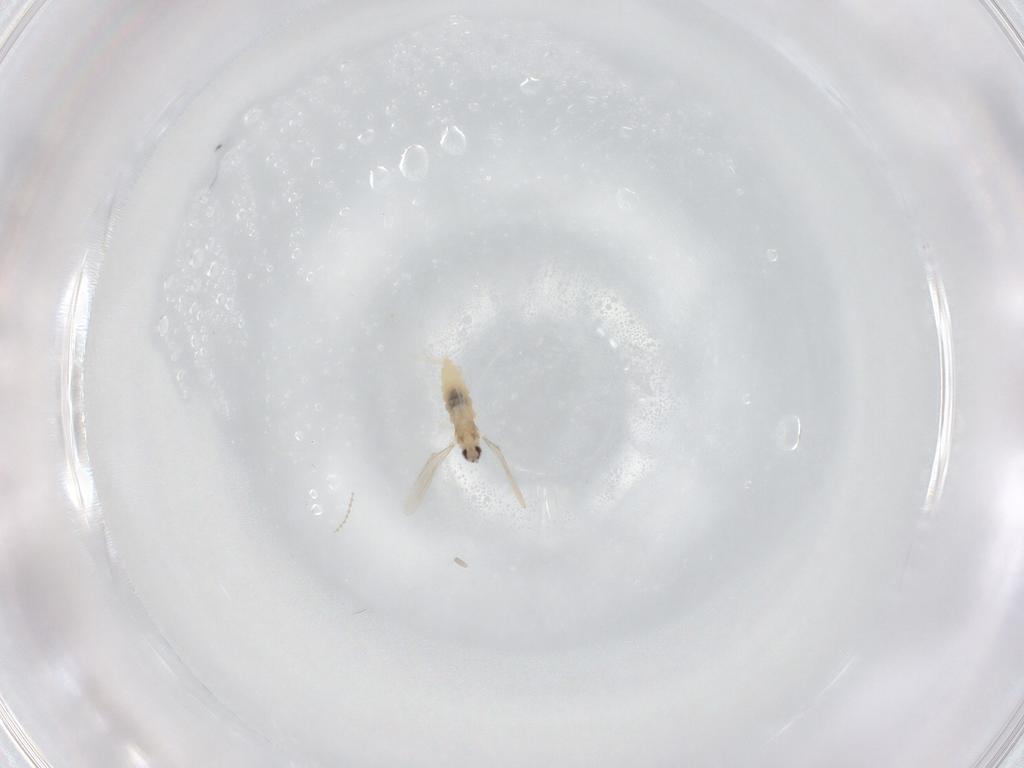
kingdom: Animalia
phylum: Arthropoda
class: Insecta
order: Diptera
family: Cecidomyiidae
